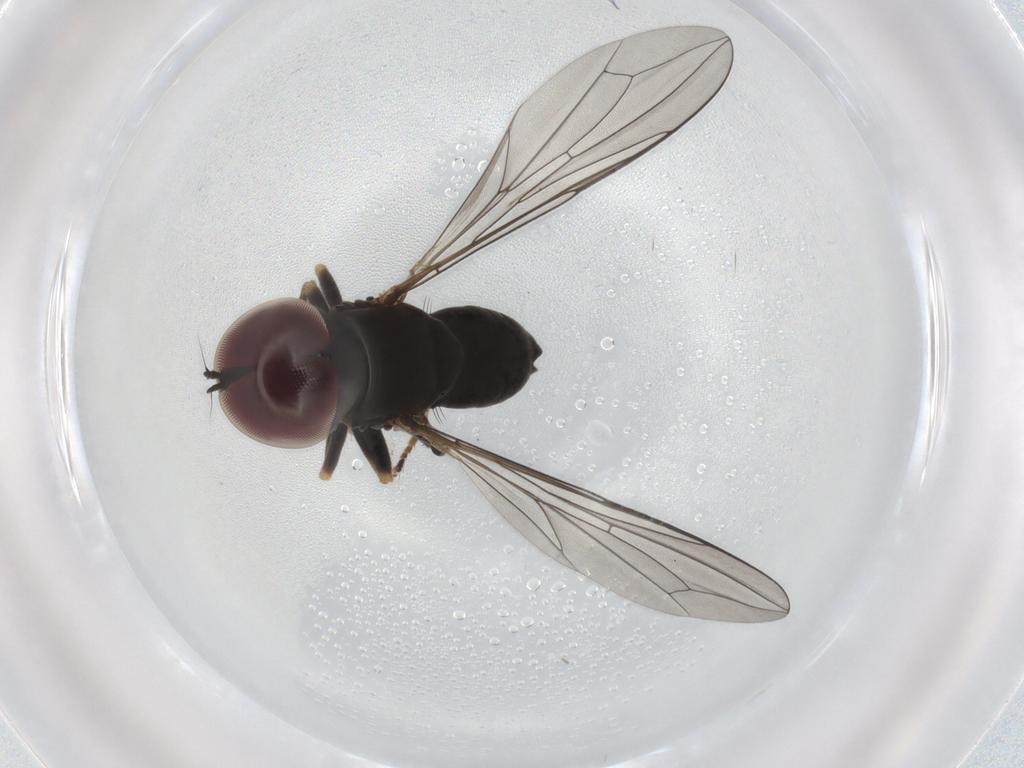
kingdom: Animalia
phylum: Arthropoda
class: Insecta
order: Diptera
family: Pipunculidae
